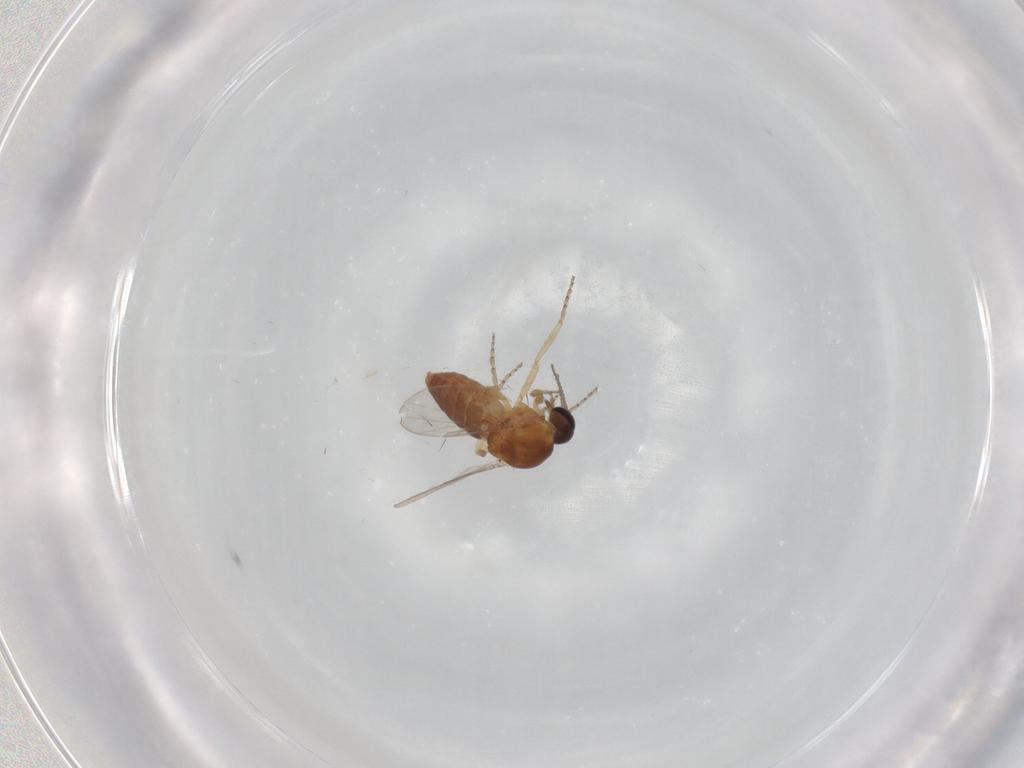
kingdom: Animalia
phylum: Arthropoda
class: Insecta
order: Diptera
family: Ceratopogonidae
